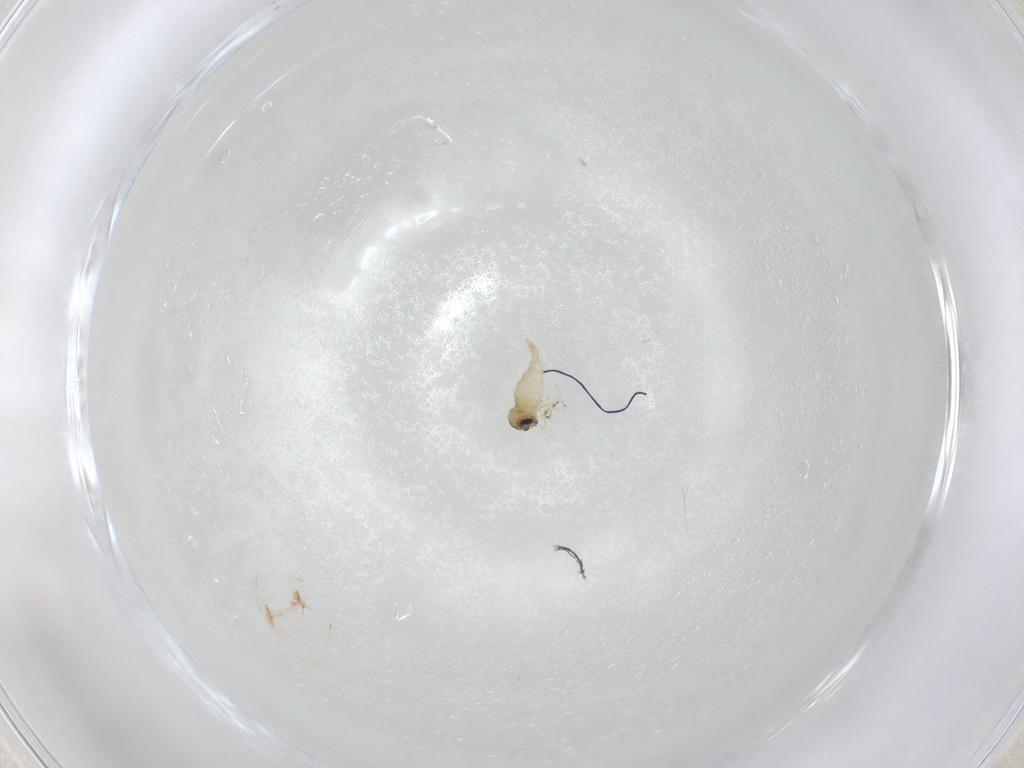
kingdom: Animalia
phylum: Arthropoda
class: Insecta
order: Diptera
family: Cecidomyiidae
